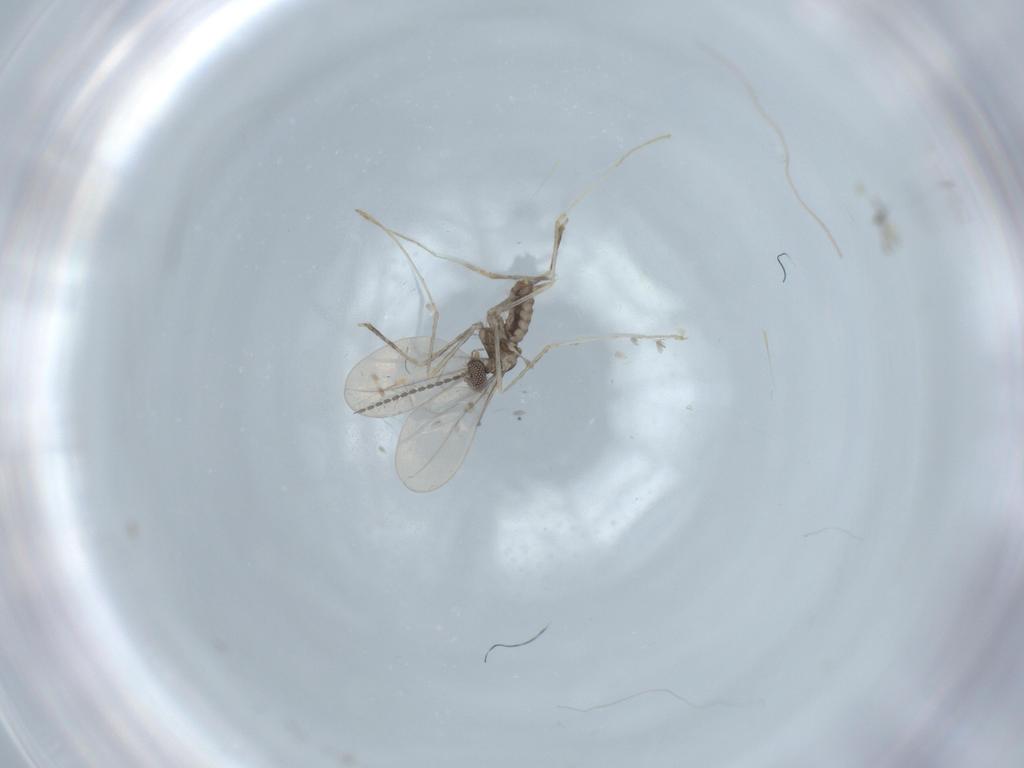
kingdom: Animalia
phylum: Arthropoda
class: Insecta
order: Diptera
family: Cecidomyiidae
